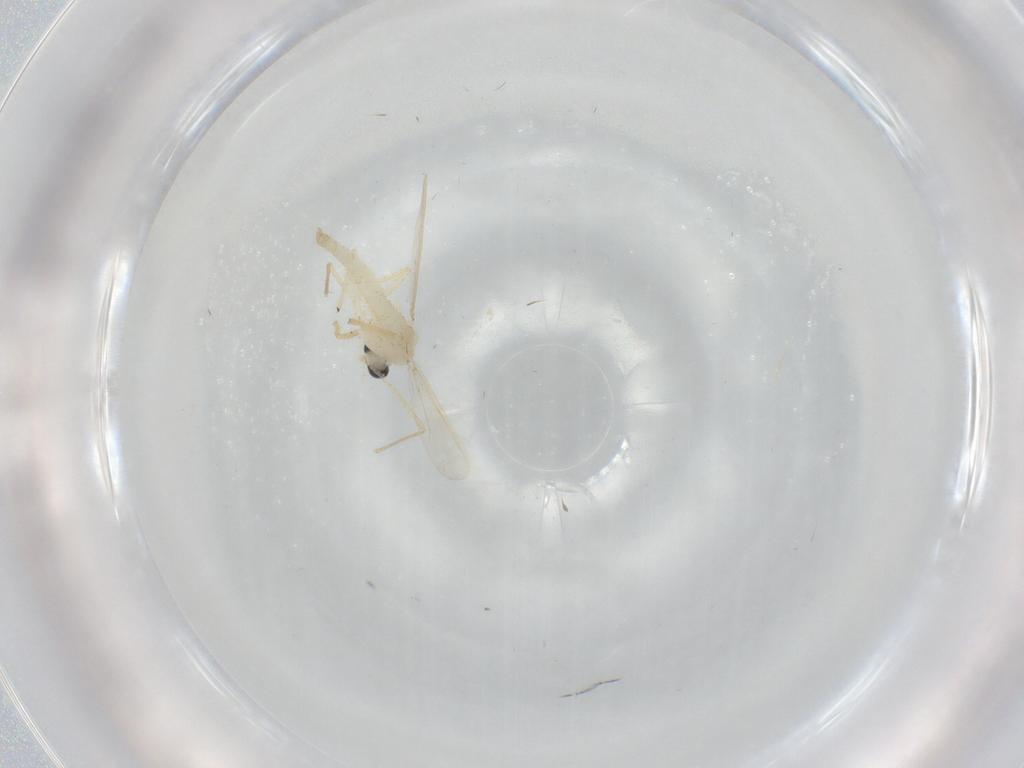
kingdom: Animalia
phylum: Arthropoda
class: Insecta
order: Diptera
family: Chironomidae
